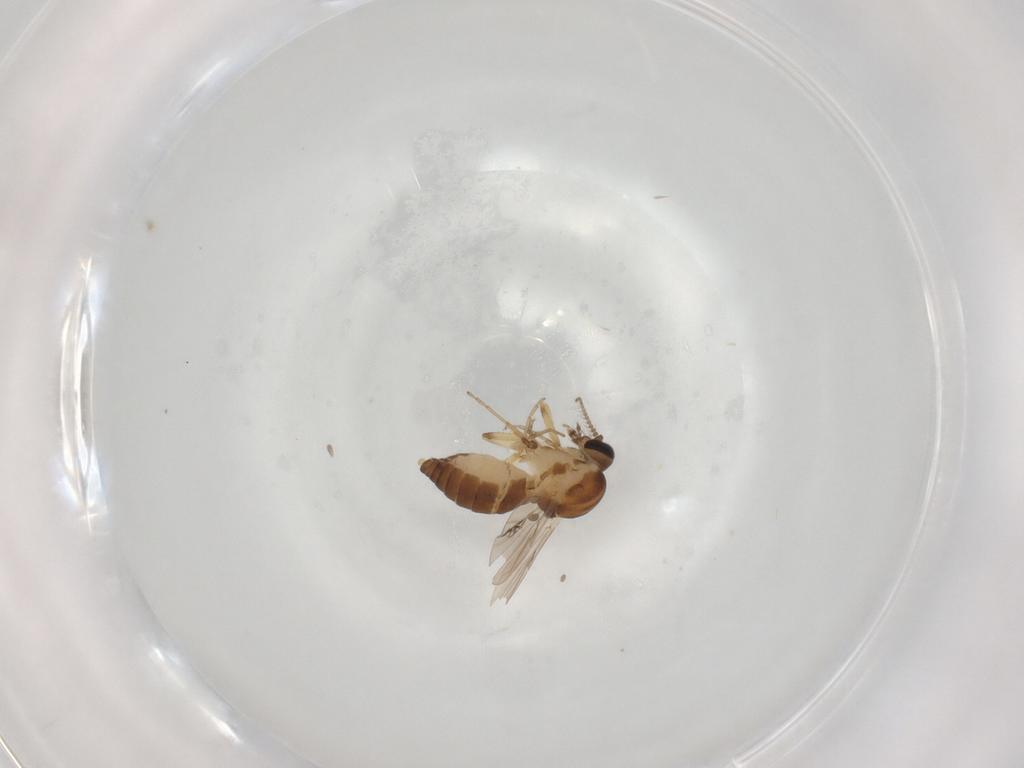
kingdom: Animalia
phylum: Arthropoda
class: Insecta
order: Diptera
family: Ceratopogonidae
